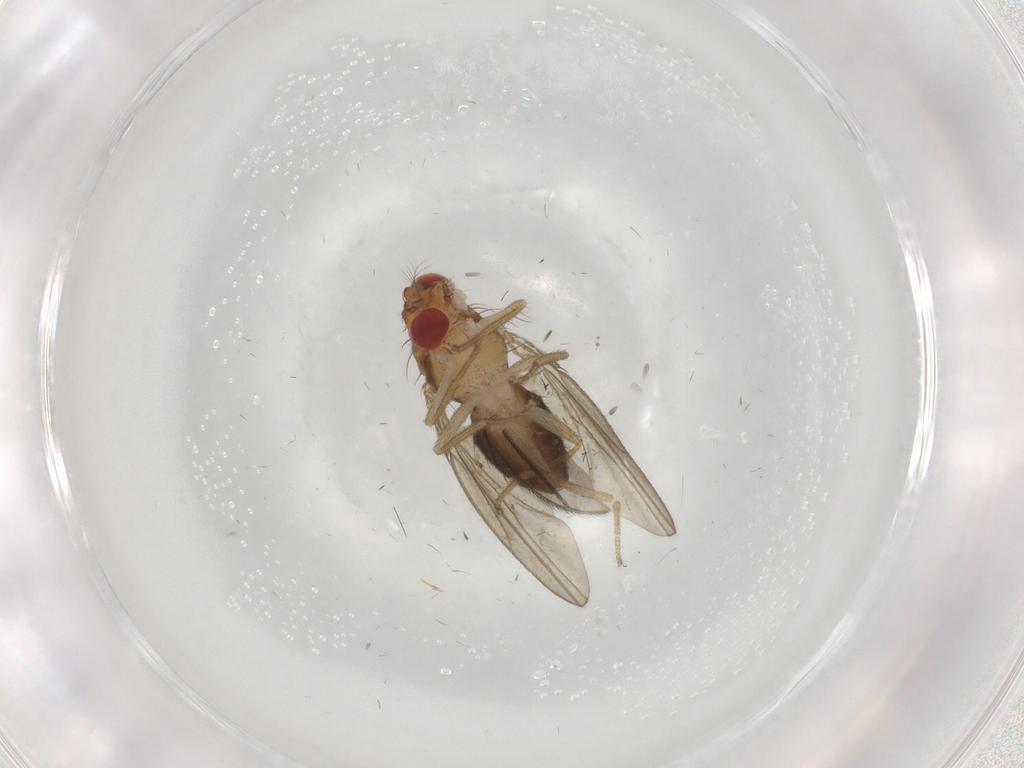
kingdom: Animalia
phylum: Arthropoda
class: Insecta
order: Diptera
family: Drosophilidae
